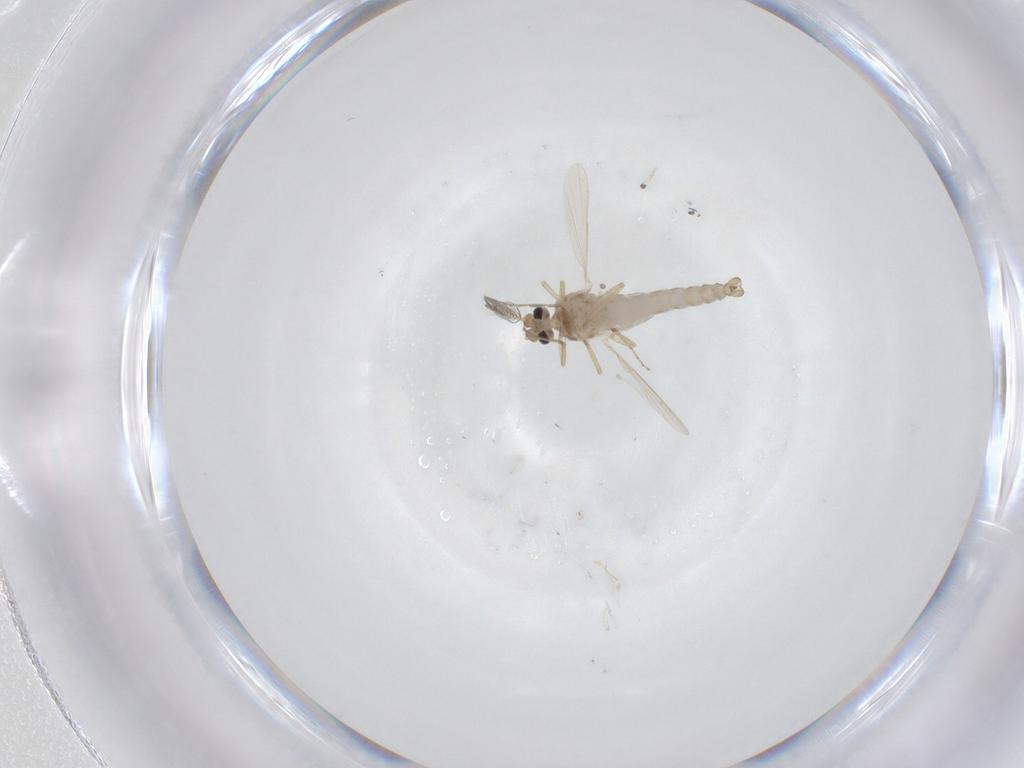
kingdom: Animalia
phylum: Arthropoda
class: Insecta
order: Diptera
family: Ceratopogonidae
